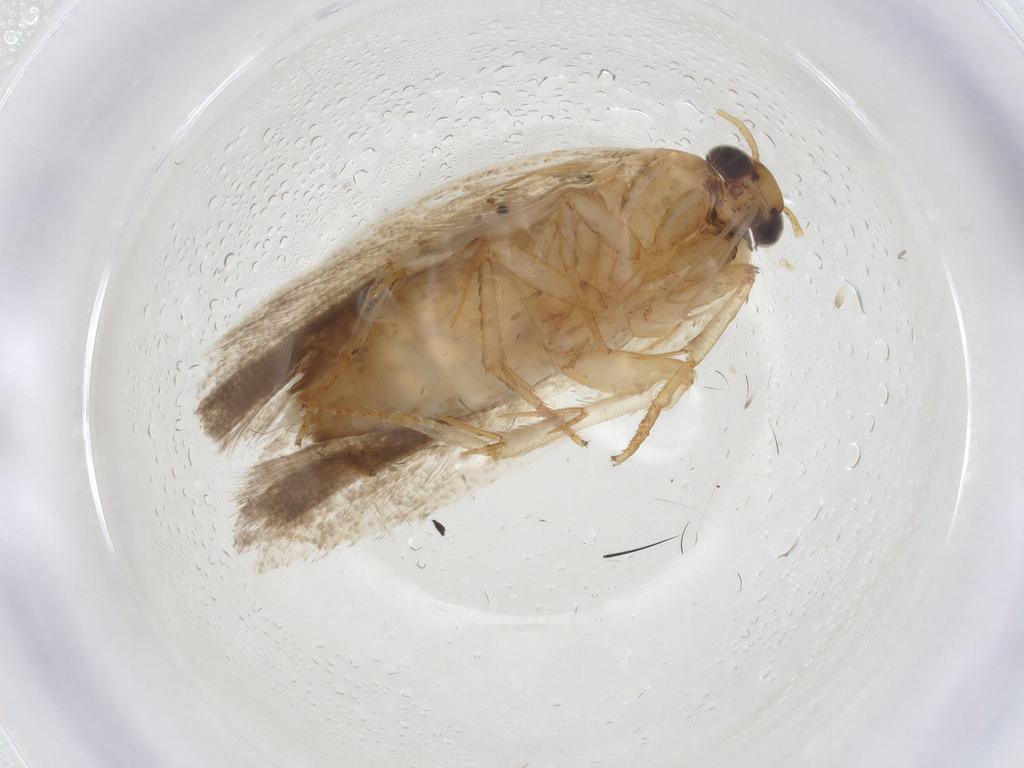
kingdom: Animalia
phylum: Arthropoda
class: Insecta
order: Lepidoptera
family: Gelechiidae
